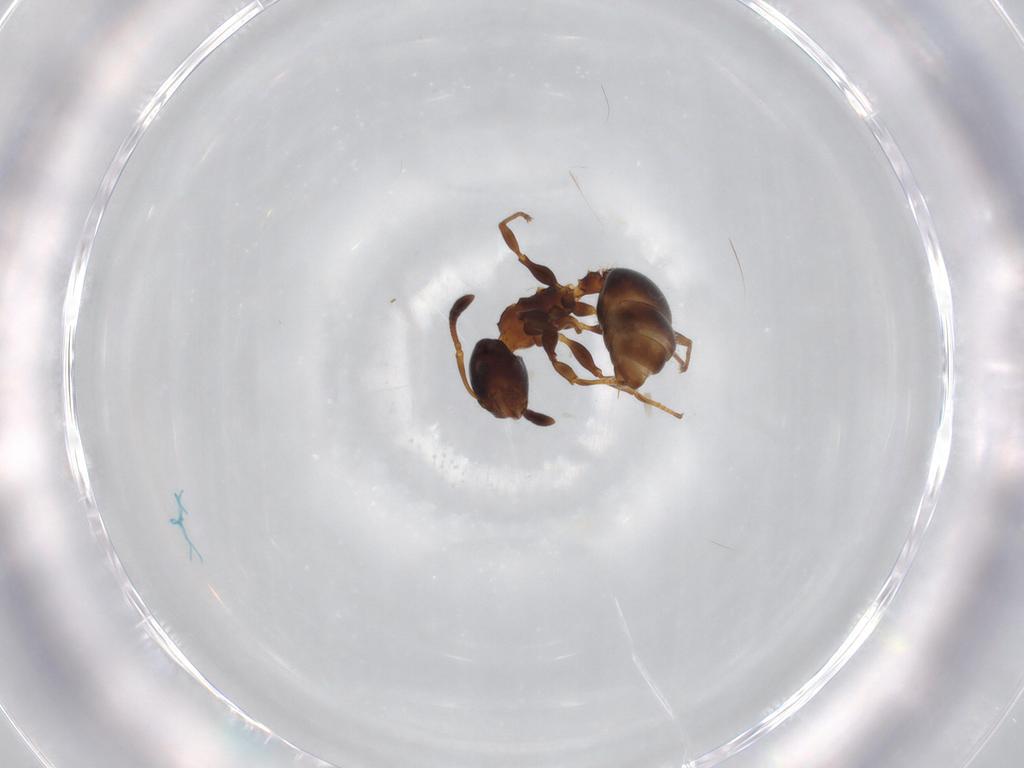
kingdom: Animalia
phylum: Arthropoda
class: Insecta
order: Hymenoptera
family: Formicidae
